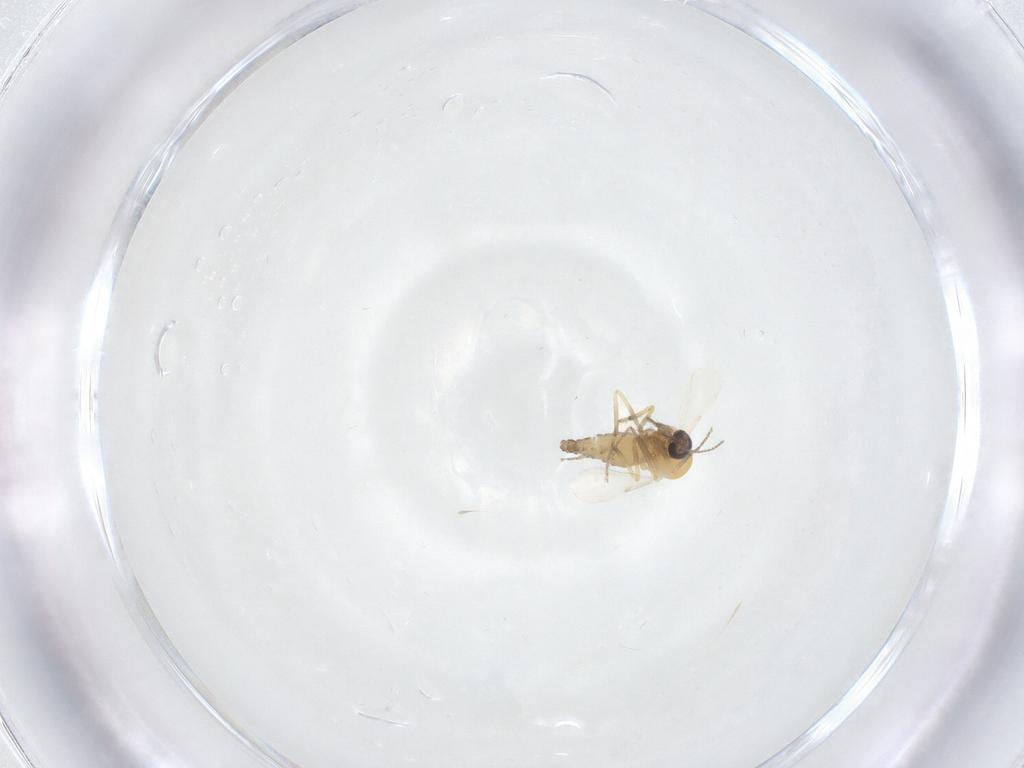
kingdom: Animalia
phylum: Arthropoda
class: Insecta
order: Diptera
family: Ceratopogonidae
